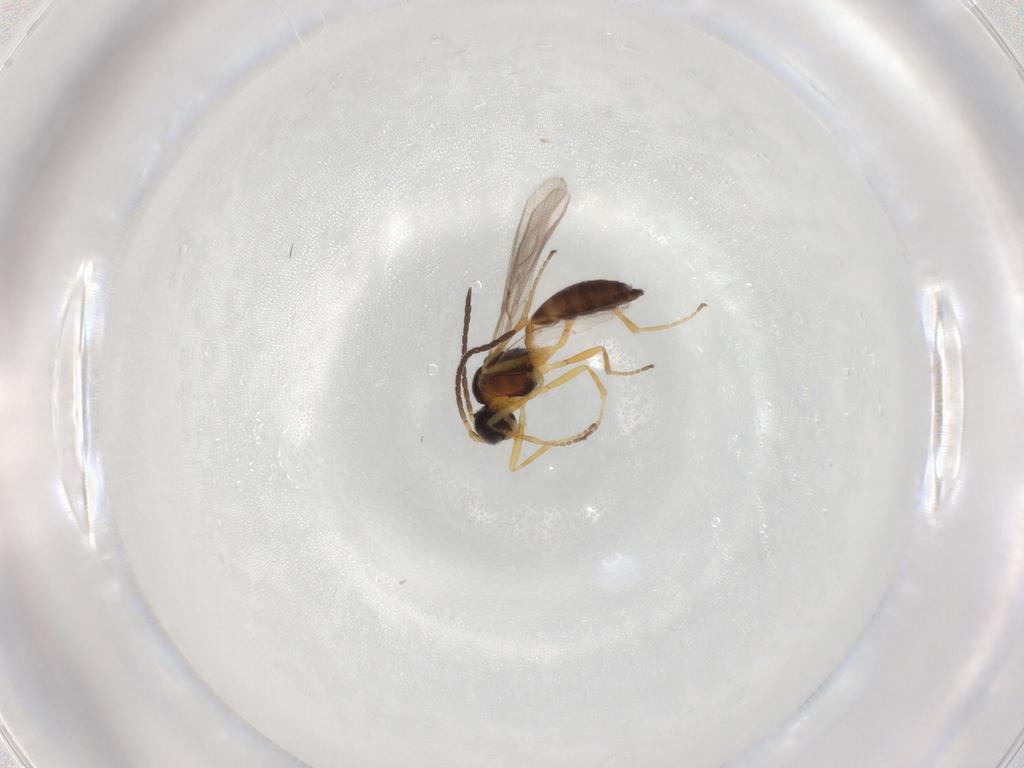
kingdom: Animalia
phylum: Arthropoda
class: Insecta
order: Hymenoptera
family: Braconidae
